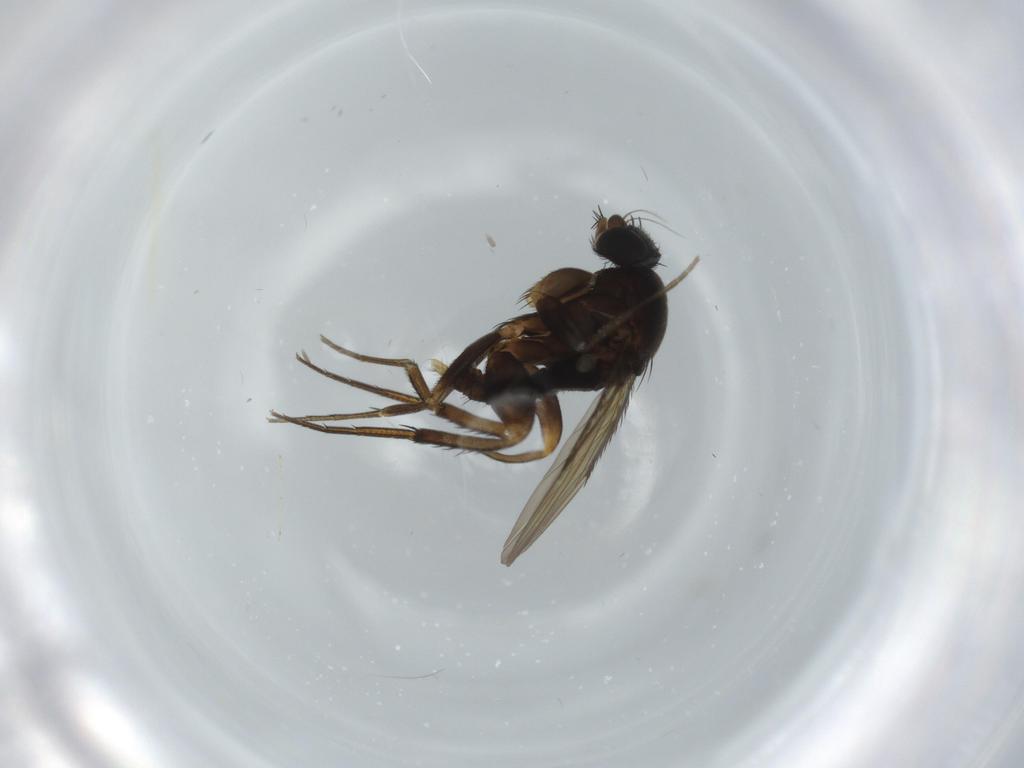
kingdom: Animalia
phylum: Arthropoda
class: Insecta
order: Diptera
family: Phoridae
